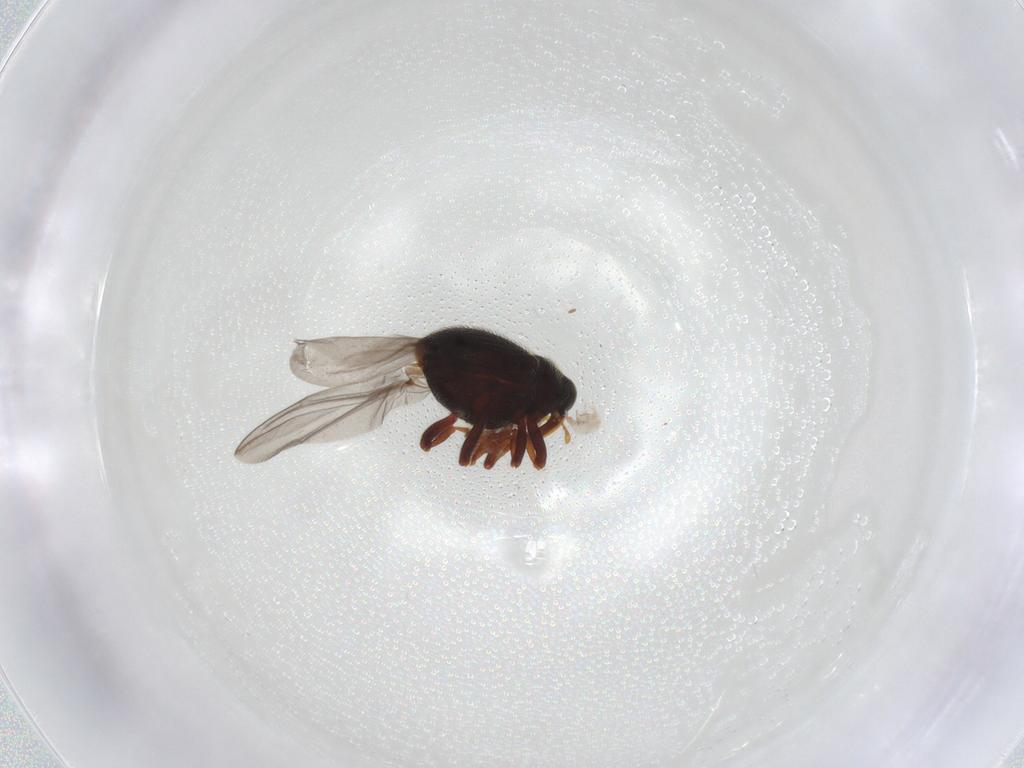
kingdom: Animalia
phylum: Arthropoda
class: Insecta
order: Coleoptera
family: Curculionidae
